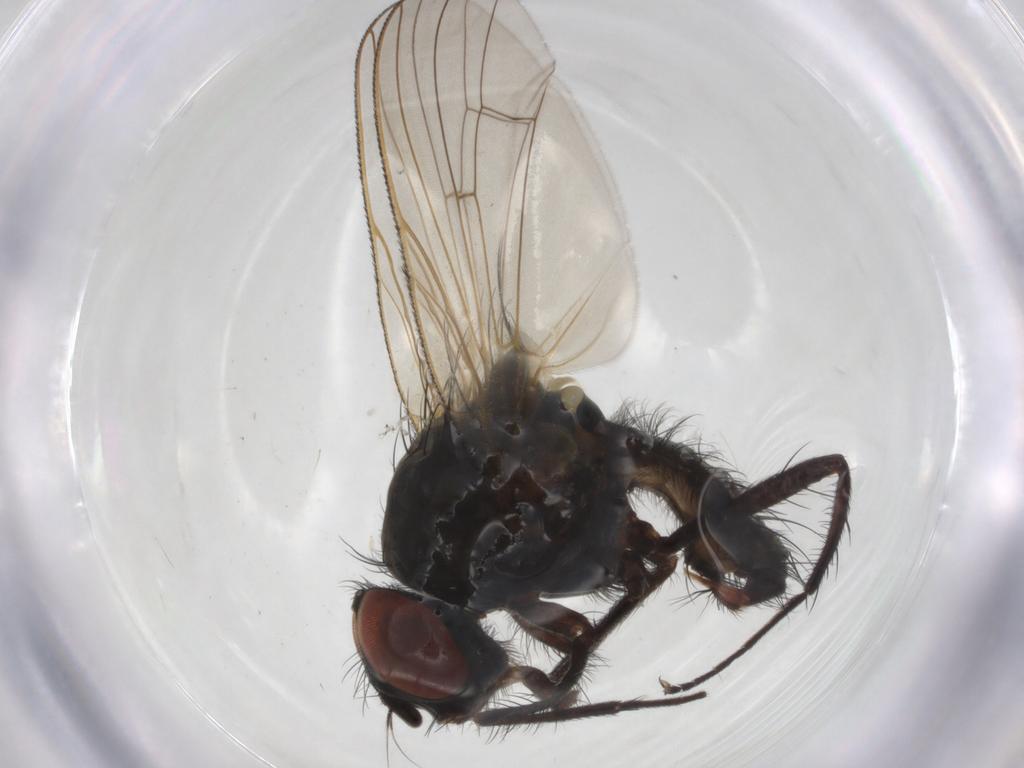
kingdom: Animalia
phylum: Arthropoda
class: Insecta
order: Diptera
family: Anthomyiidae
